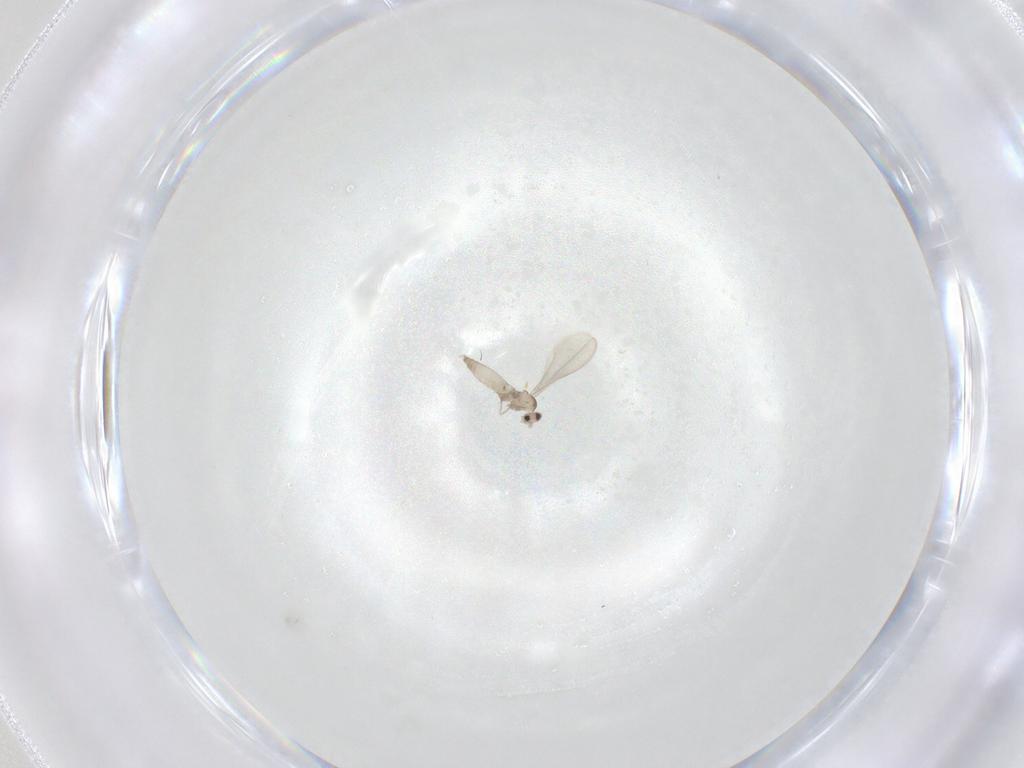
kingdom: Animalia
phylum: Arthropoda
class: Insecta
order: Diptera
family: Cecidomyiidae
